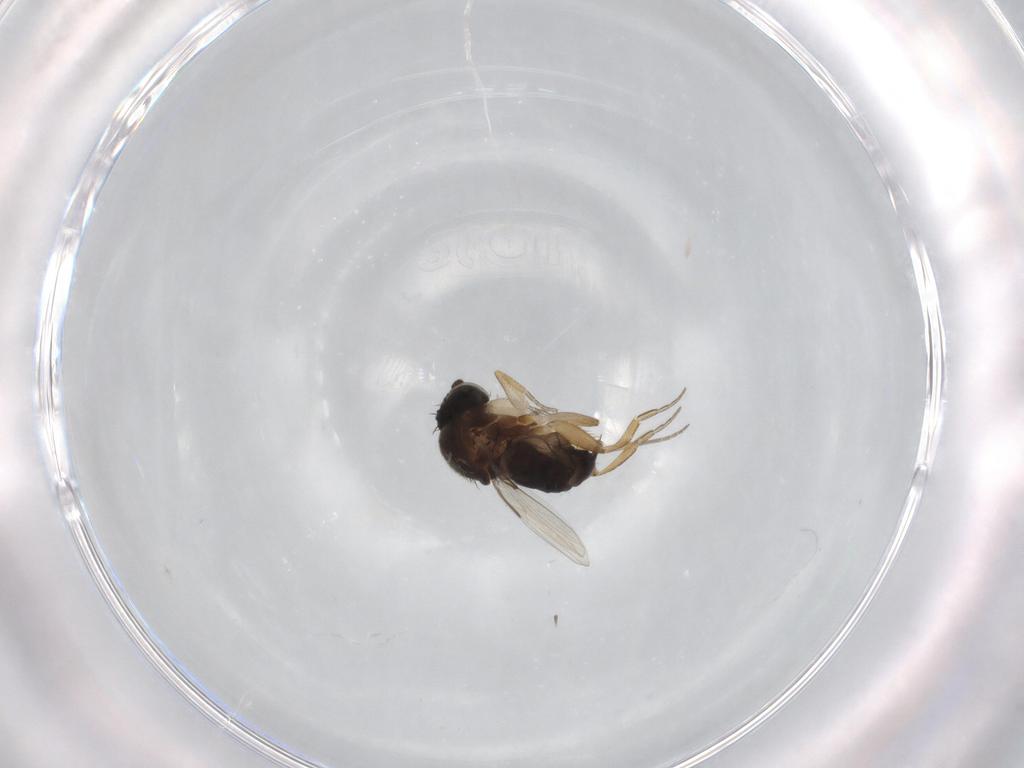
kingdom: Animalia
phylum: Arthropoda
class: Insecta
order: Diptera
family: Phoridae
